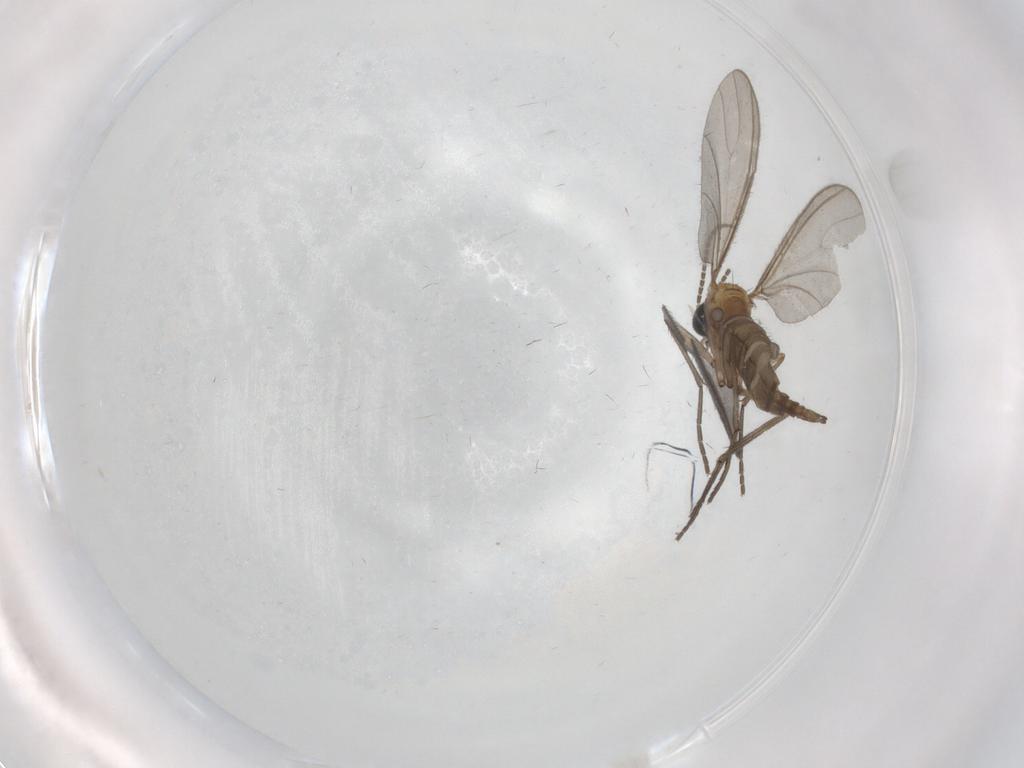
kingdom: Animalia
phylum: Arthropoda
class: Insecta
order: Diptera
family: Sciaridae
